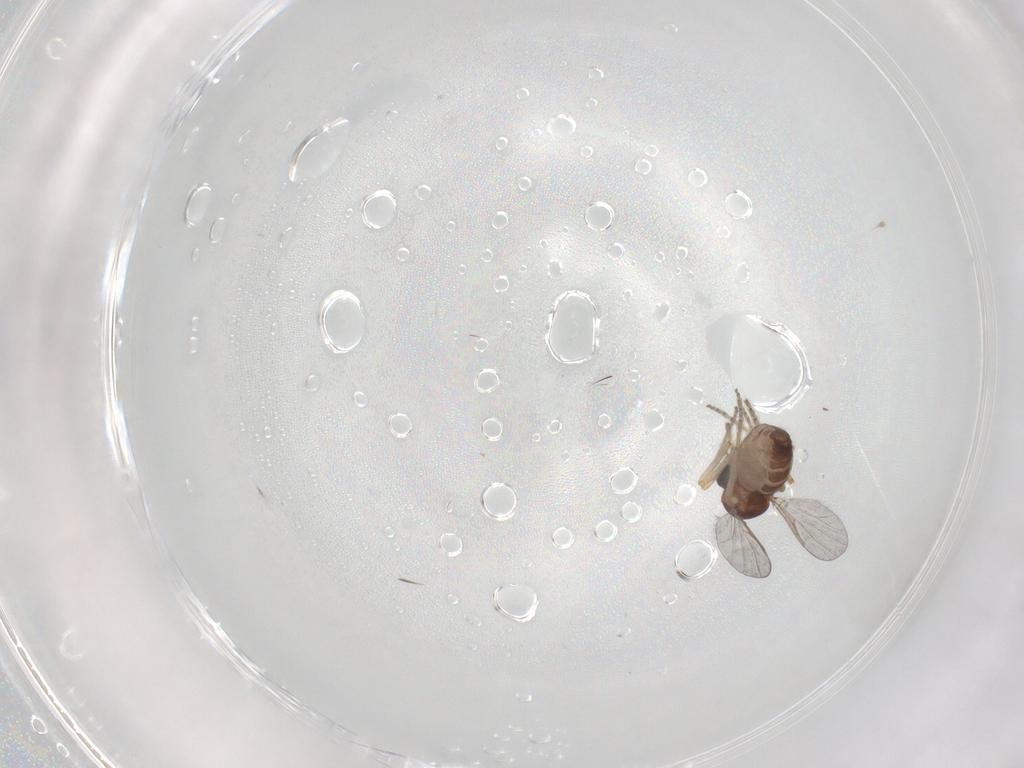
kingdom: Animalia
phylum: Arthropoda
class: Insecta
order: Diptera
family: Ceratopogonidae
